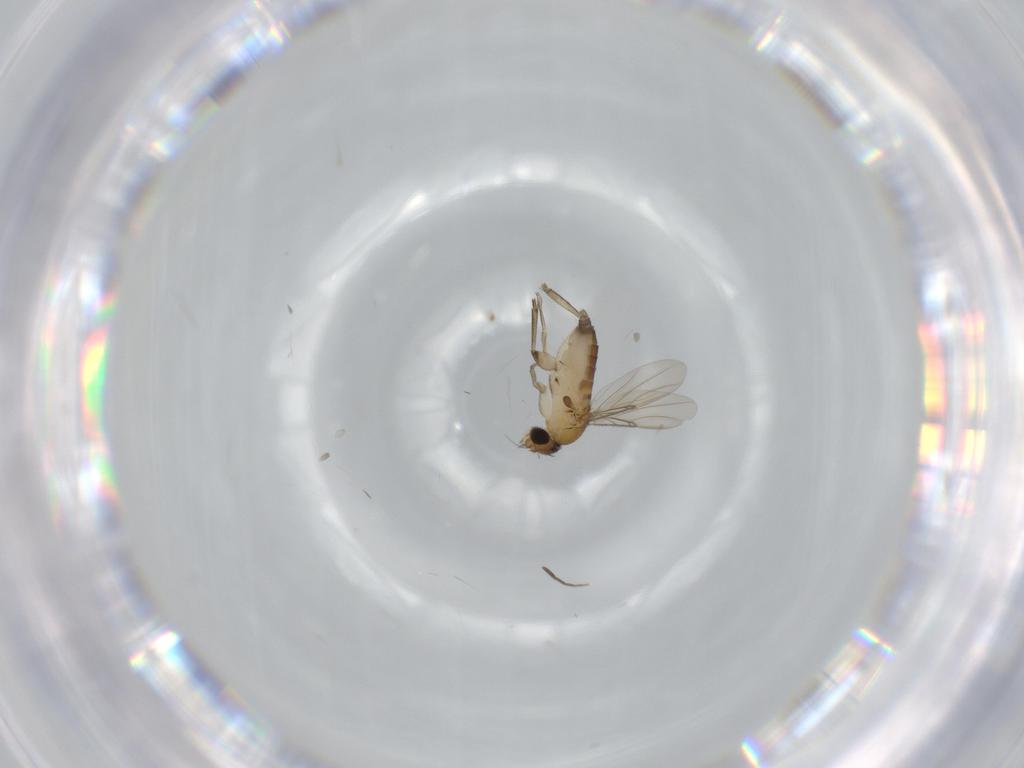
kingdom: Animalia
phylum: Arthropoda
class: Insecta
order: Diptera
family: Phoridae
